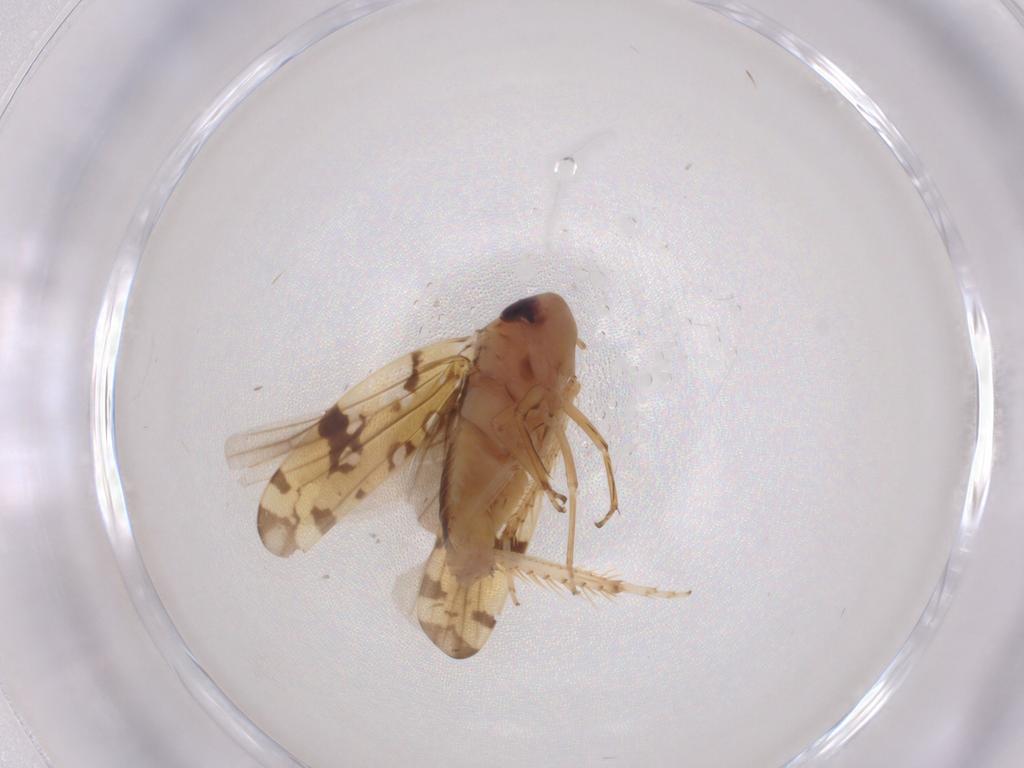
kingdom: Animalia
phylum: Arthropoda
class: Insecta
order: Hemiptera
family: Cicadellidae
